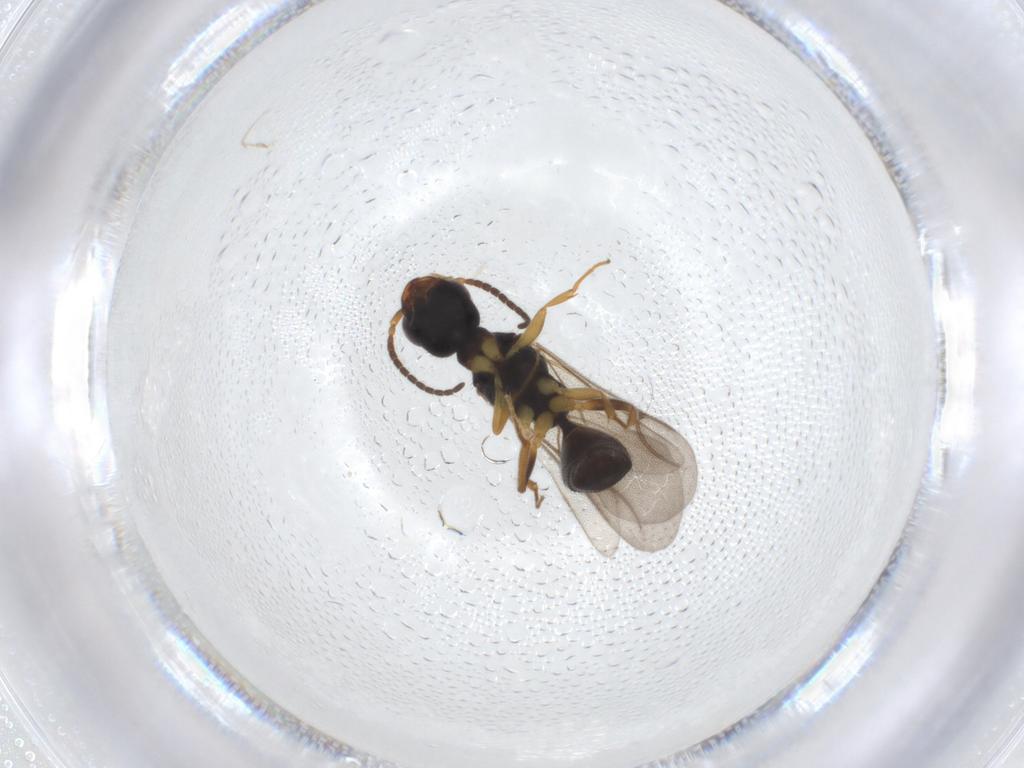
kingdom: Animalia
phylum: Arthropoda
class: Insecta
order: Hymenoptera
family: Bethylidae
